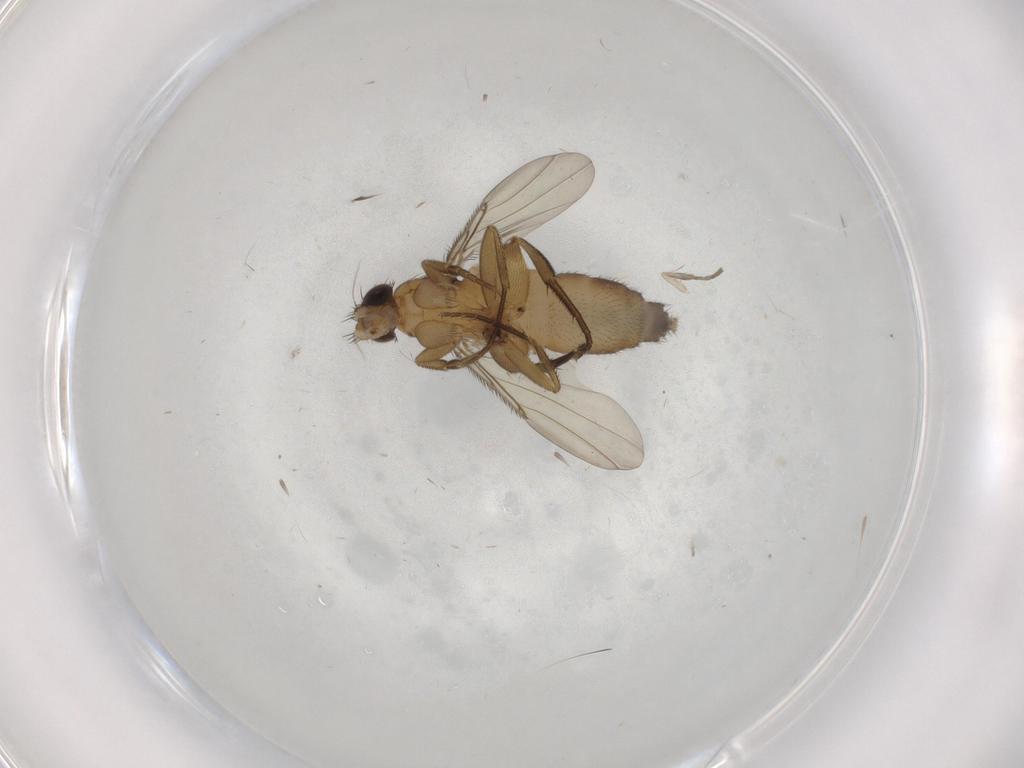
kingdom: Animalia
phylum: Arthropoda
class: Insecta
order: Diptera
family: Phoridae
